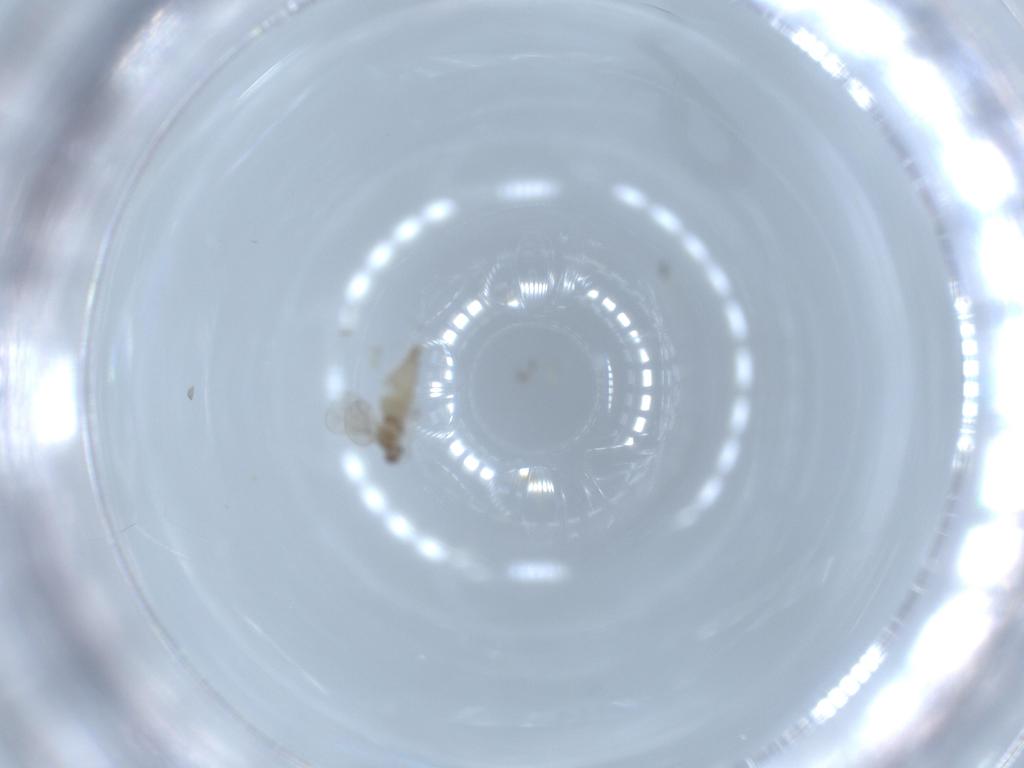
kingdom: Animalia
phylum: Arthropoda
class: Insecta
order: Diptera
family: Chironomidae
